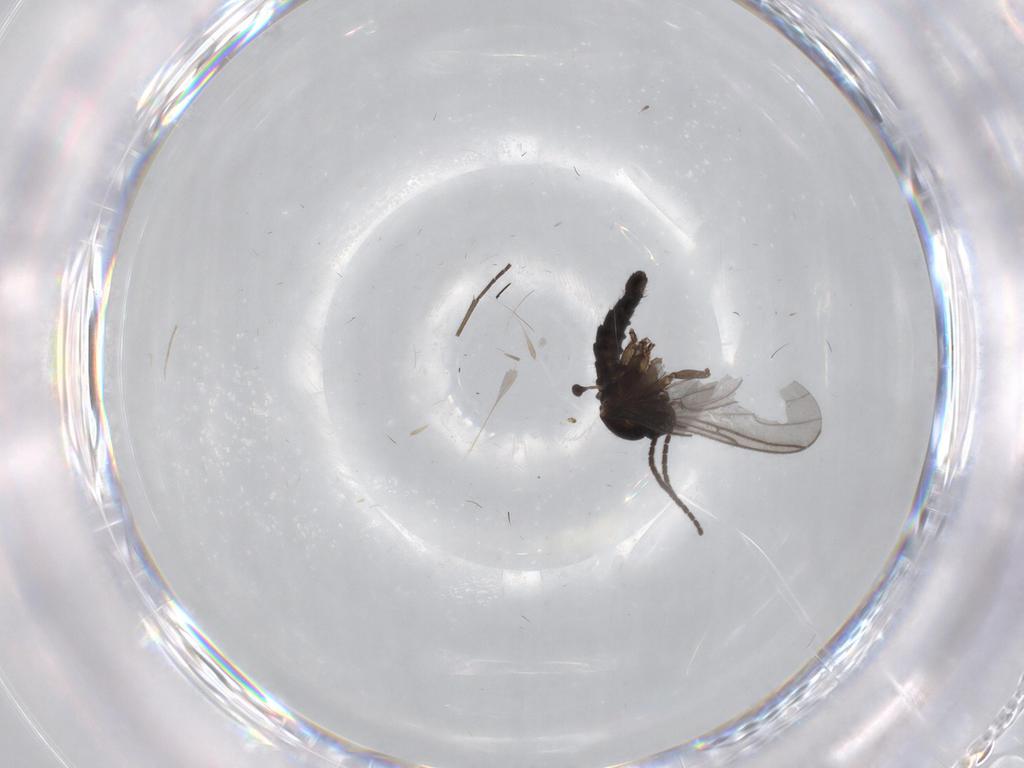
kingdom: Animalia
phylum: Arthropoda
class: Insecta
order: Diptera
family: Sciaridae
